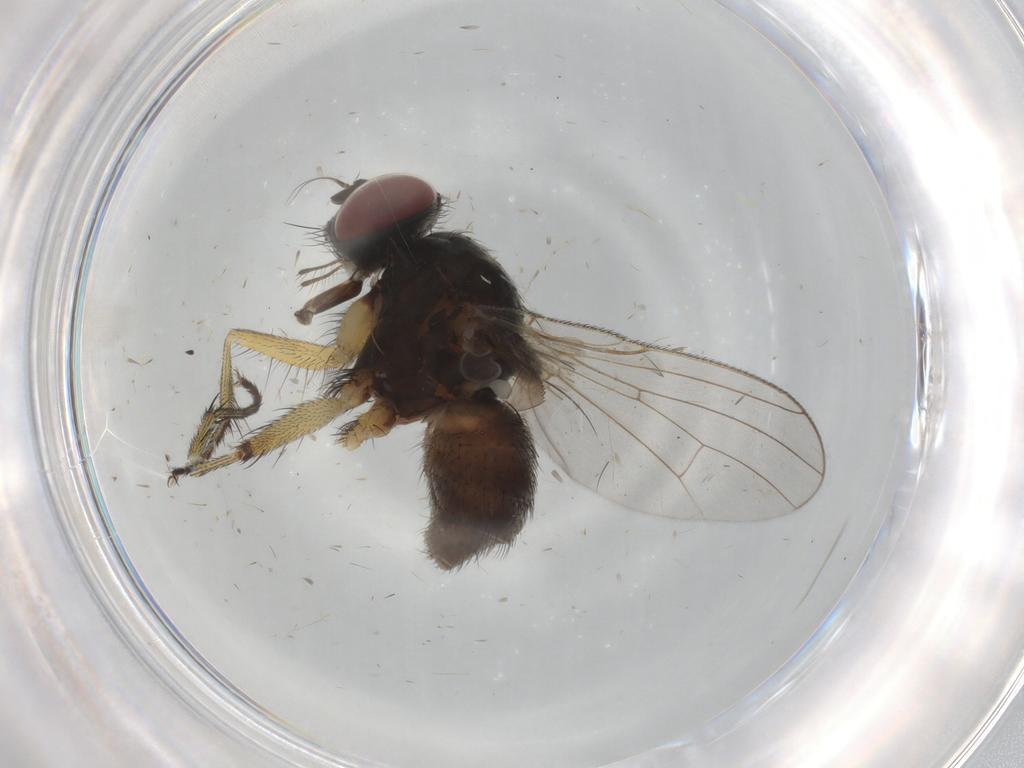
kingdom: Animalia
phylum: Arthropoda
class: Insecta
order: Diptera
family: Muscidae
